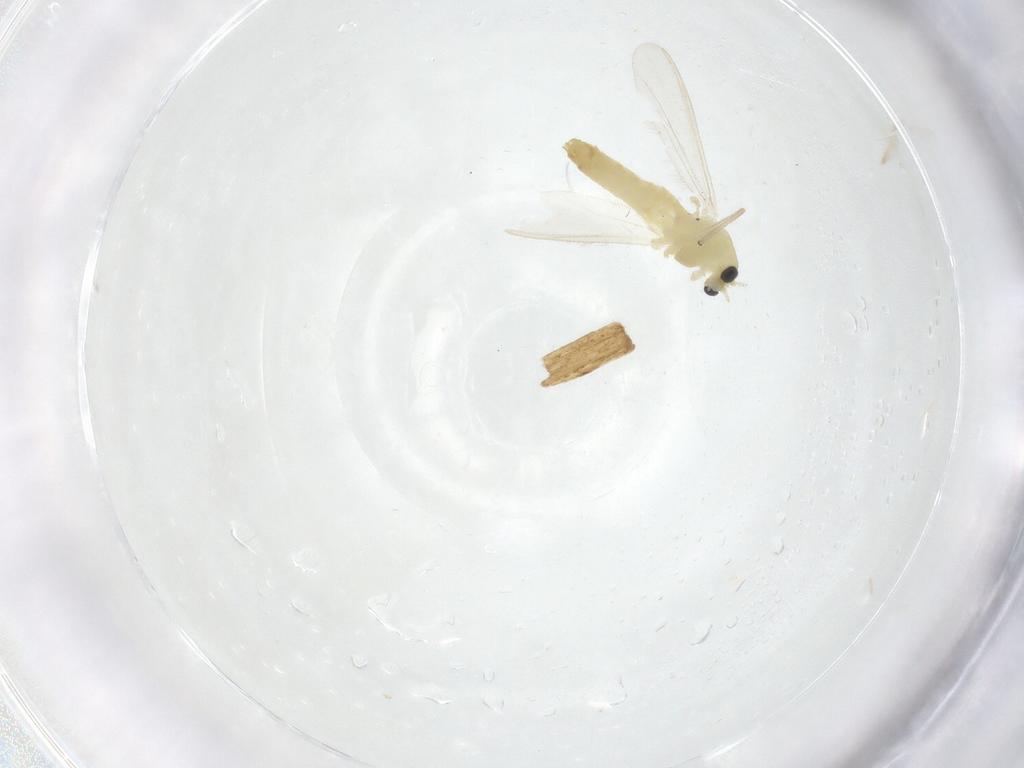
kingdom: Animalia
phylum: Arthropoda
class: Insecta
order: Diptera
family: Chironomidae
